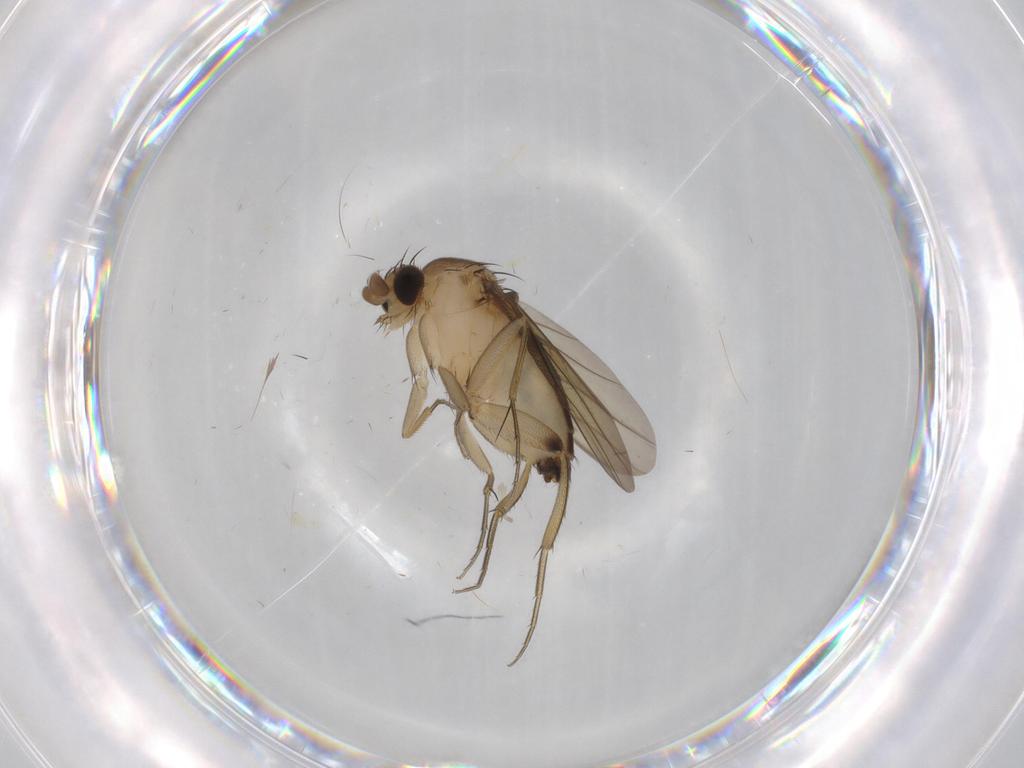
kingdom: Animalia
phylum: Arthropoda
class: Insecta
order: Diptera
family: Phoridae
